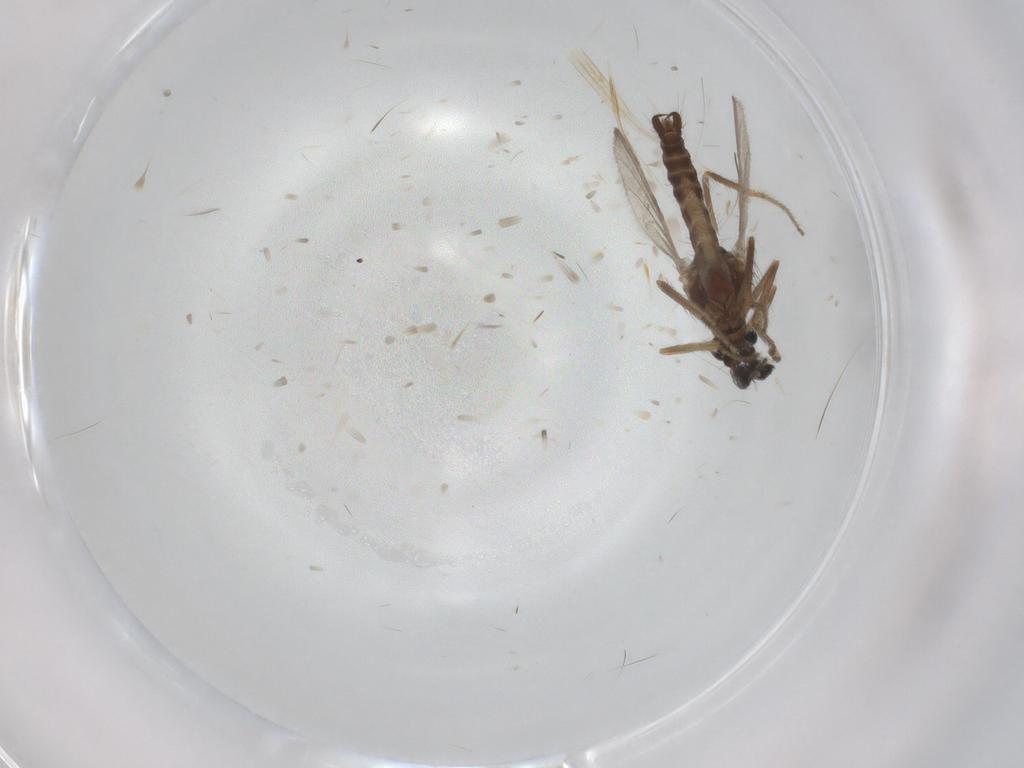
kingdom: Animalia
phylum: Arthropoda
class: Insecta
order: Diptera
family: Ceratopogonidae
